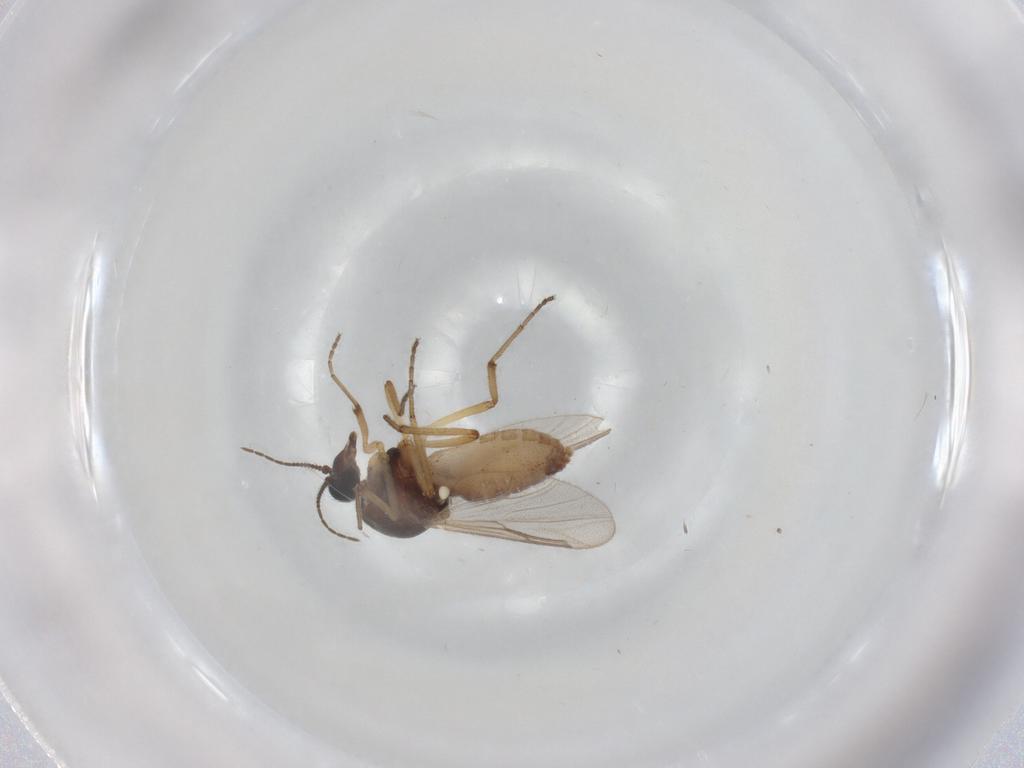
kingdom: Animalia
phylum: Arthropoda
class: Insecta
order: Diptera
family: Ceratopogonidae
